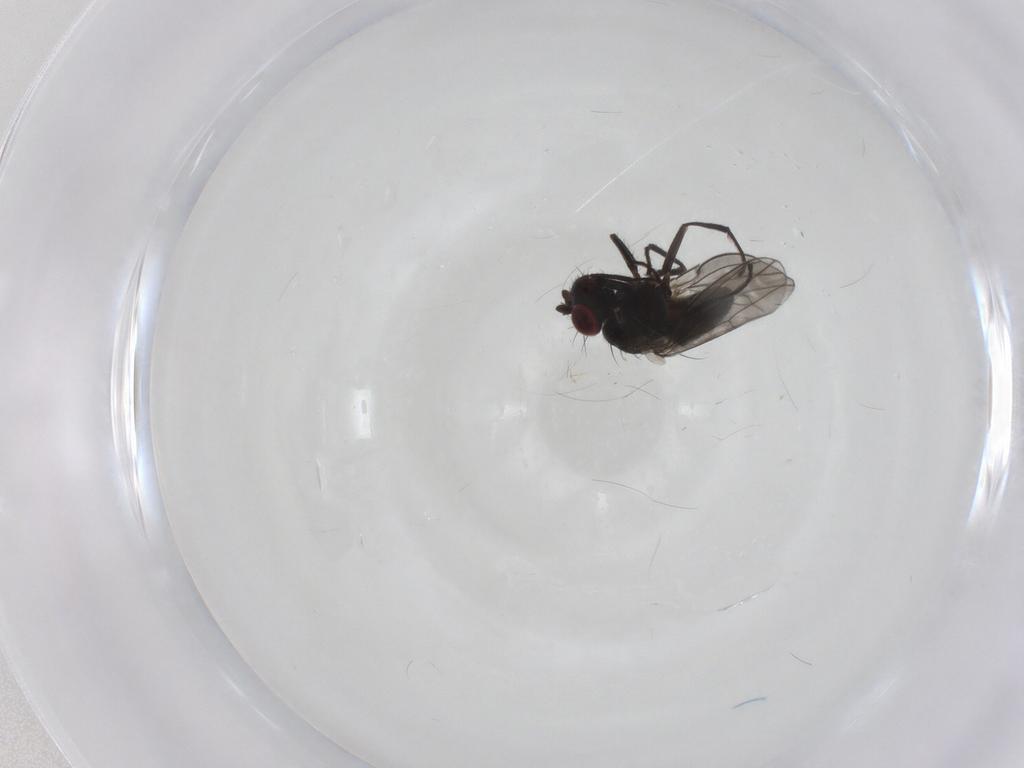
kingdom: Animalia
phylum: Arthropoda
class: Insecta
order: Diptera
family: Ephydridae
